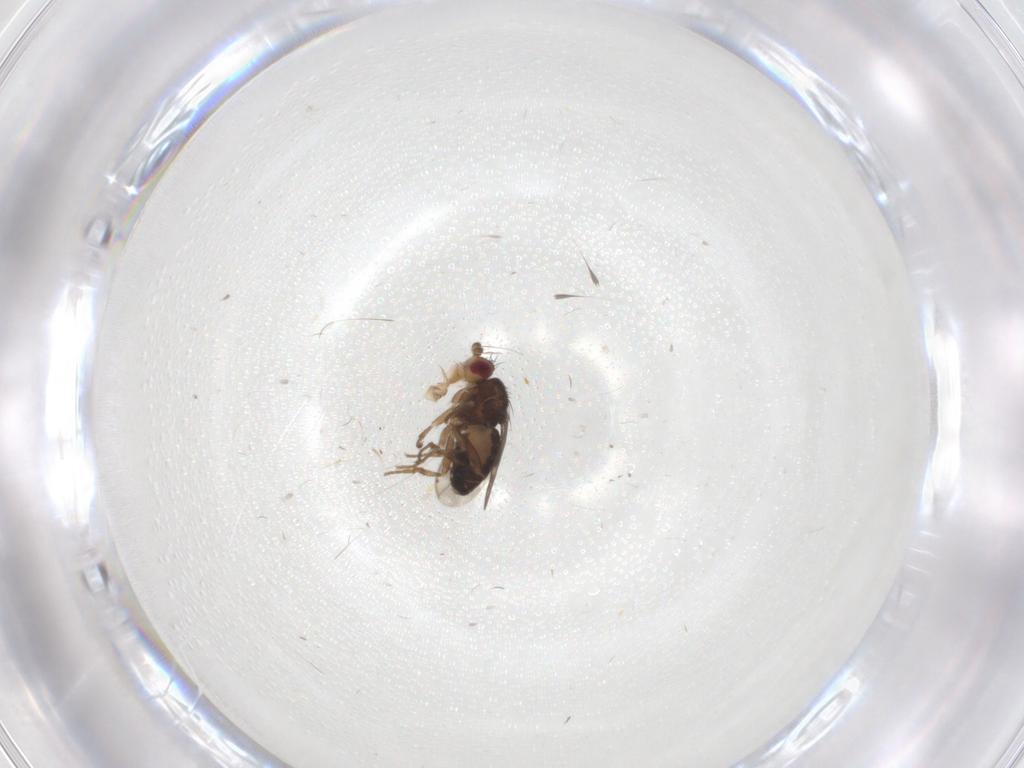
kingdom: Animalia
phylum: Arthropoda
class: Insecta
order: Diptera
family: Sphaeroceridae
